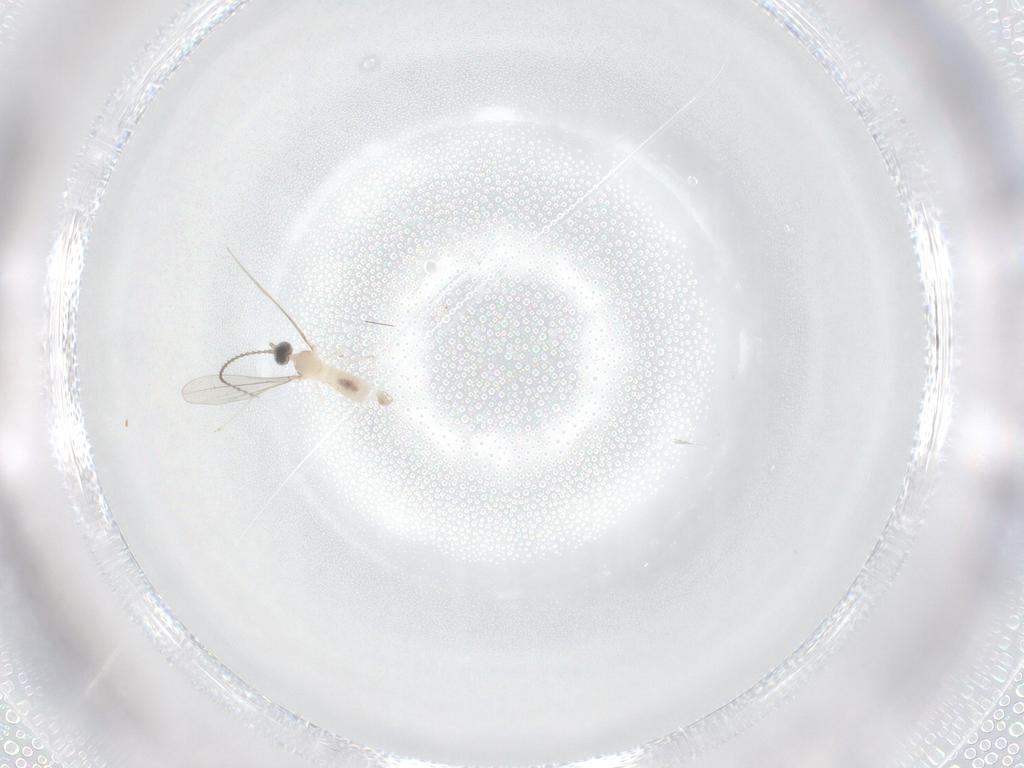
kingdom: Animalia
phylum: Arthropoda
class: Insecta
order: Diptera
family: Cecidomyiidae
